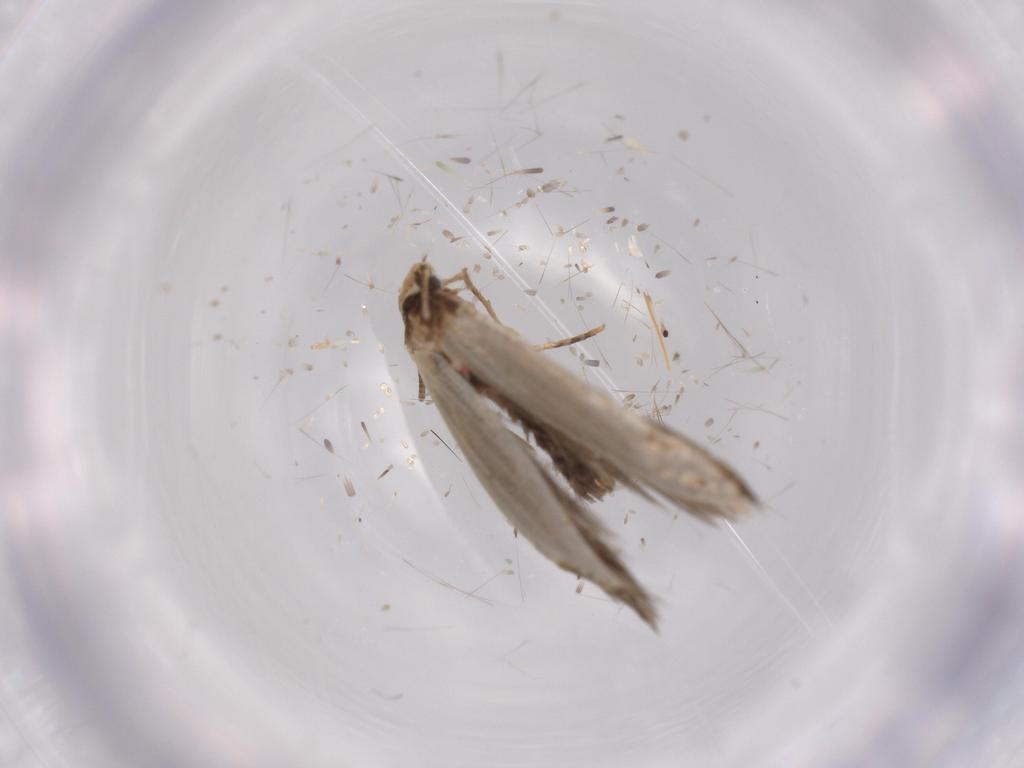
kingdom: Animalia
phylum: Arthropoda
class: Insecta
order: Lepidoptera
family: Tineidae
